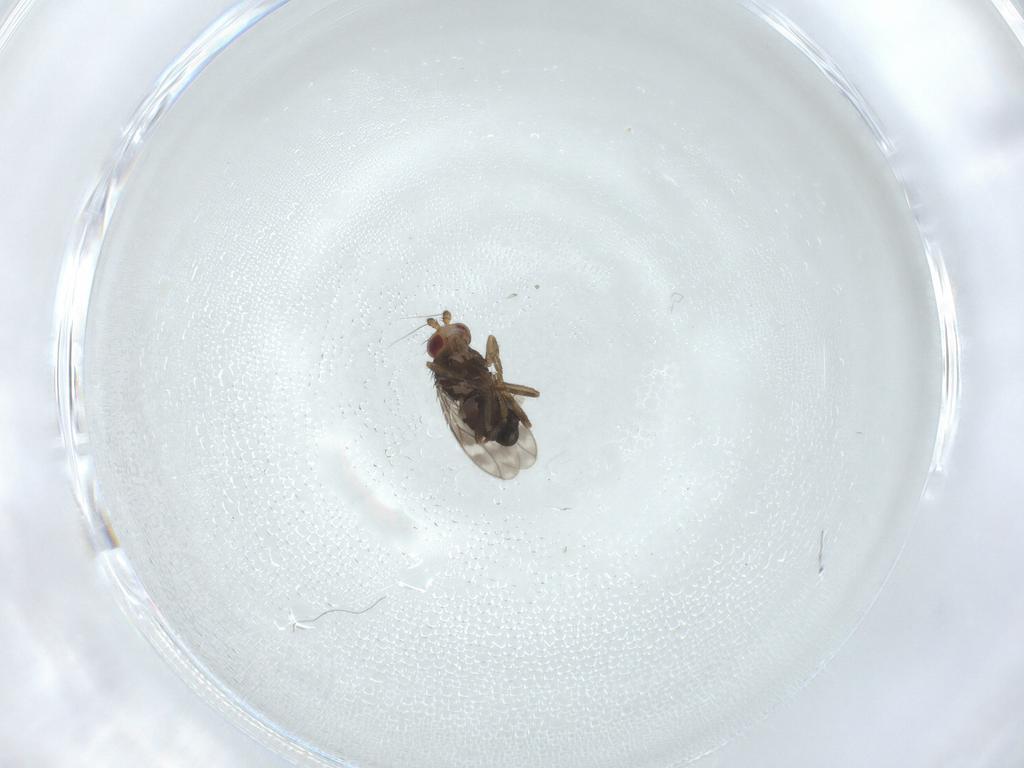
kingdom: Animalia
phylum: Arthropoda
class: Insecta
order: Diptera
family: Sphaeroceridae
